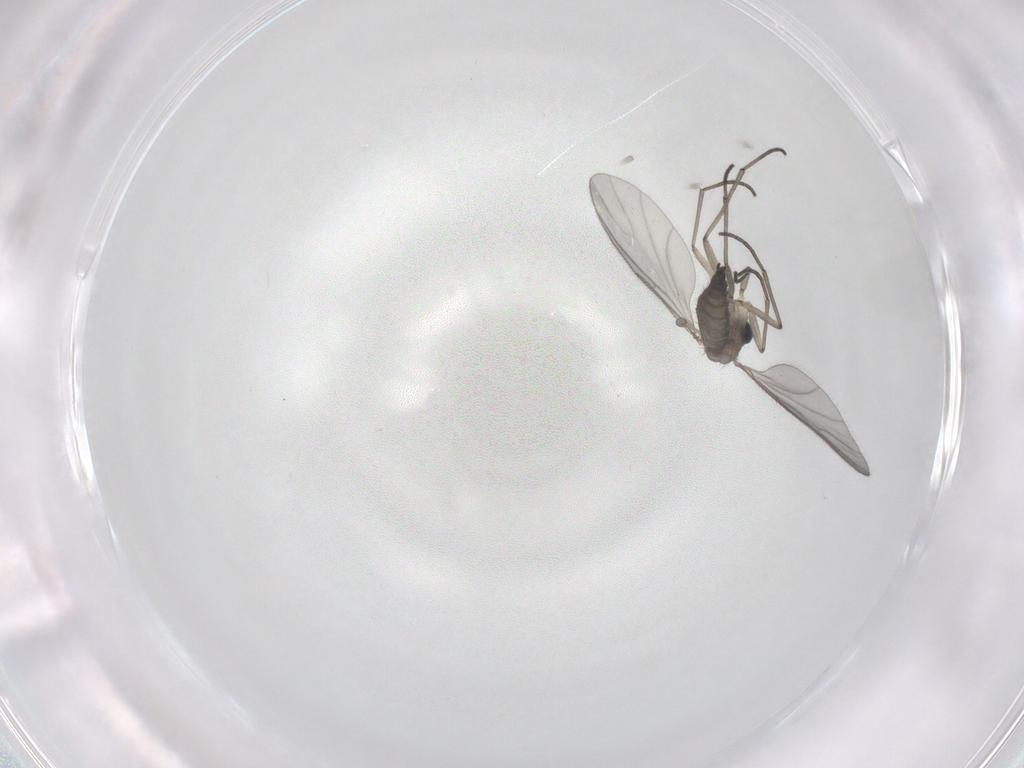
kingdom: Animalia
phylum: Arthropoda
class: Insecta
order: Diptera
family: Sciaridae
